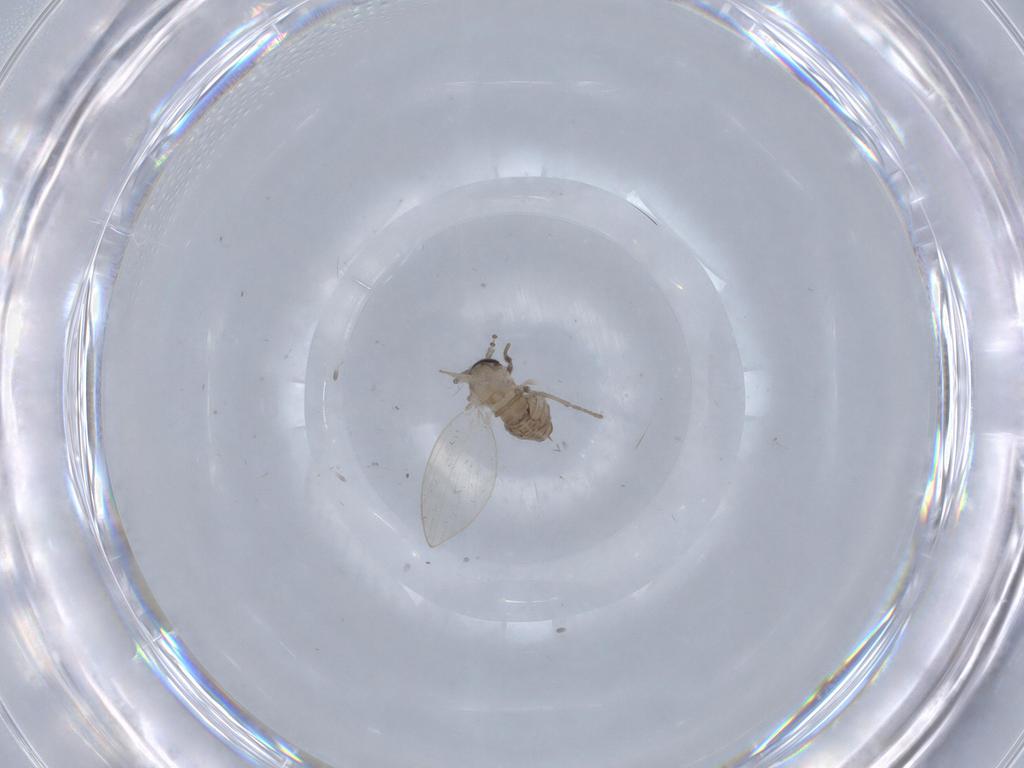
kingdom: Animalia
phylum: Arthropoda
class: Insecta
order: Diptera
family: Psychodidae
